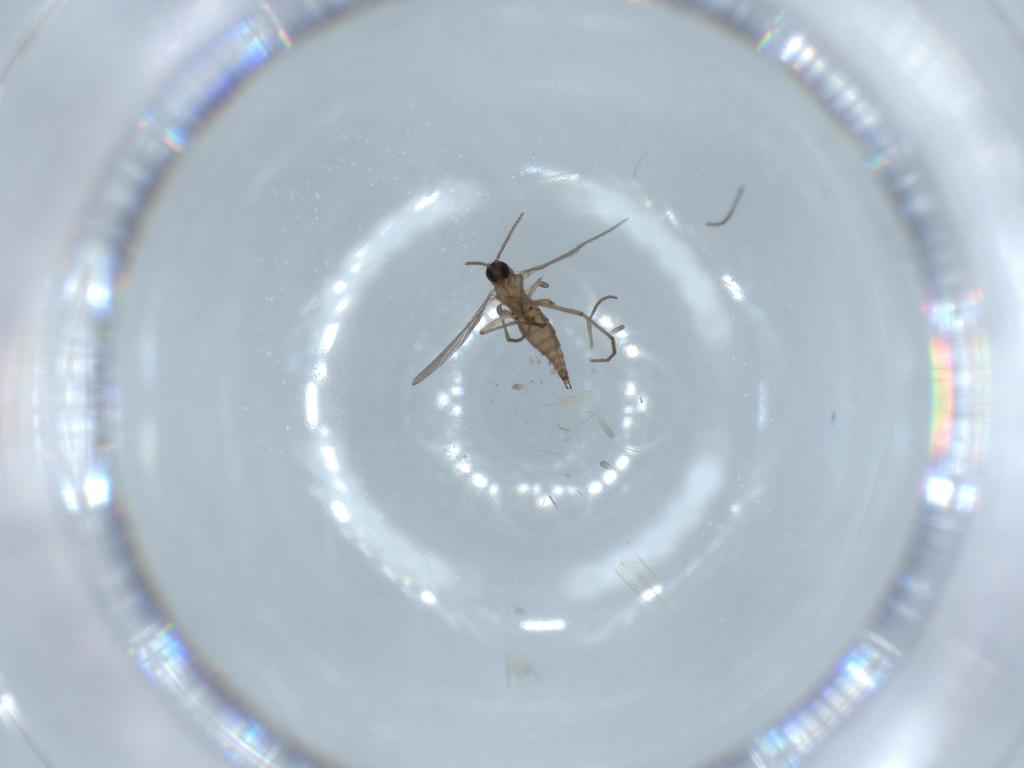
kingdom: Animalia
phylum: Arthropoda
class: Insecta
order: Diptera
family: Sciaridae
